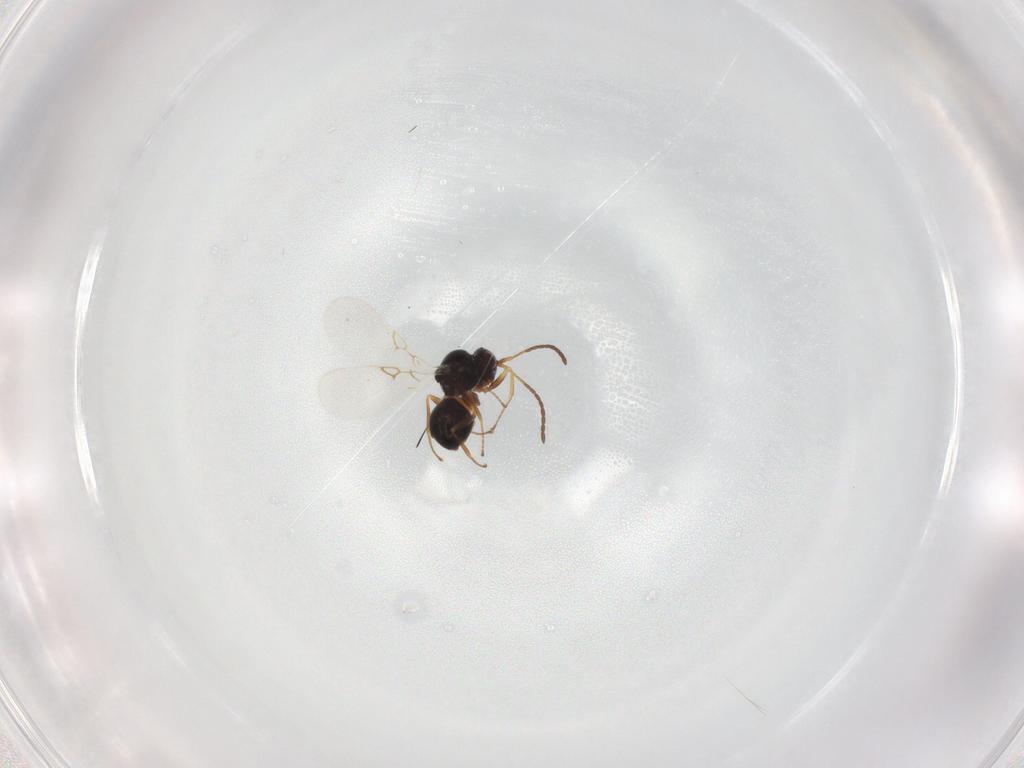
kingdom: Animalia
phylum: Arthropoda
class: Insecta
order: Hymenoptera
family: Figitidae
